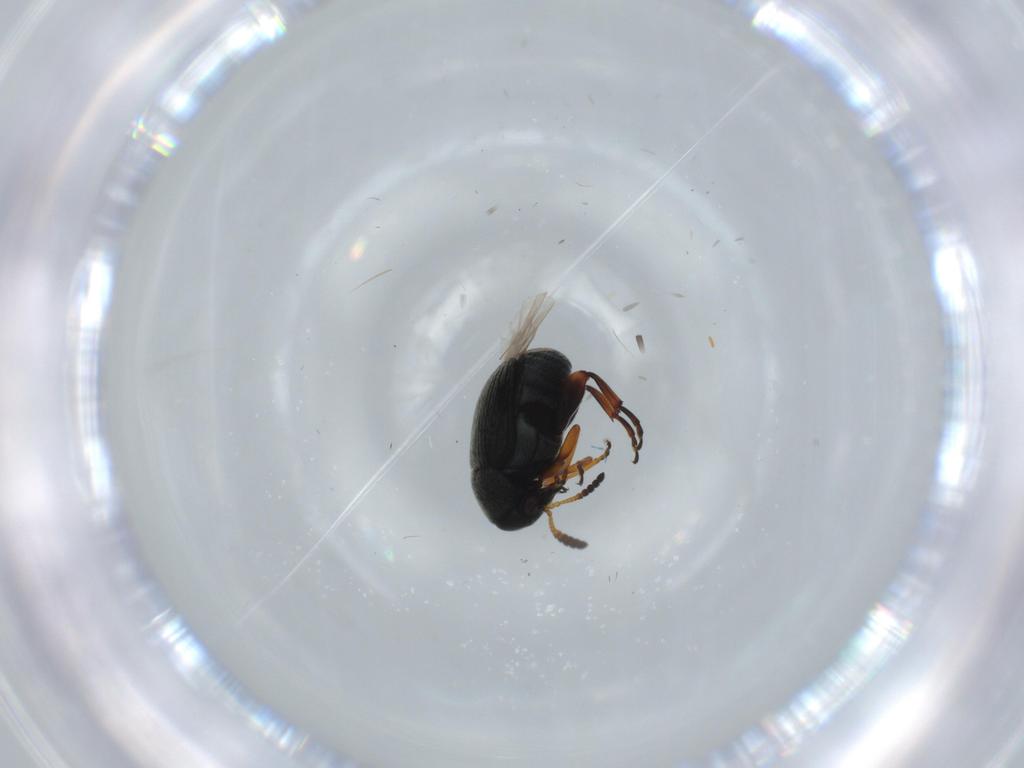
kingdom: Animalia
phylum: Arthropoda
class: Insecta
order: Coleoptera
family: Chrysomelidae
